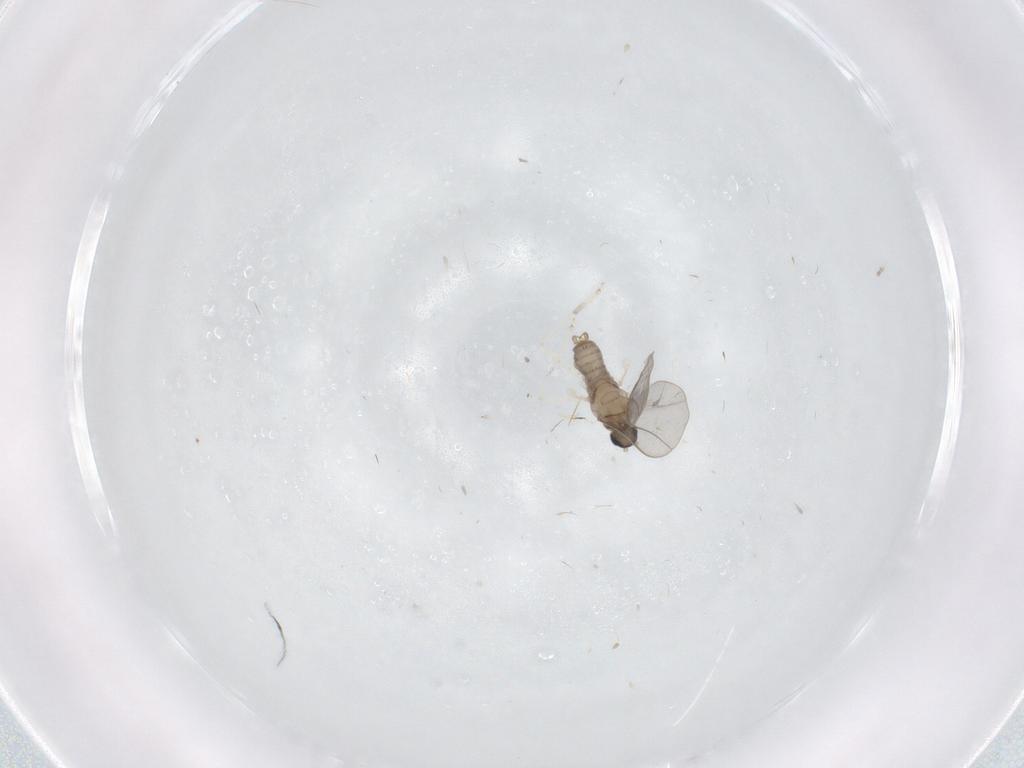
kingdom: Animalia
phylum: Arthropoda
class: Insecta
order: Diptera
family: Cecidomyiidae
